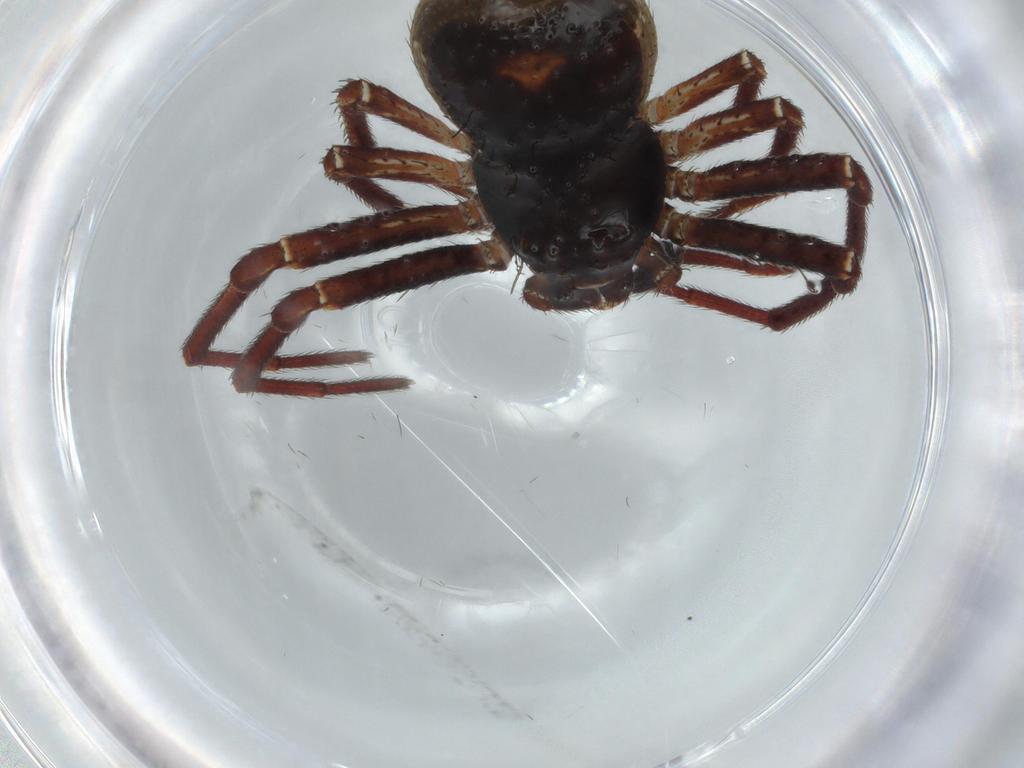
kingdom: Animalia
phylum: Arthropoda
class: Arachnida
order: Araneae
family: Thomisidae
